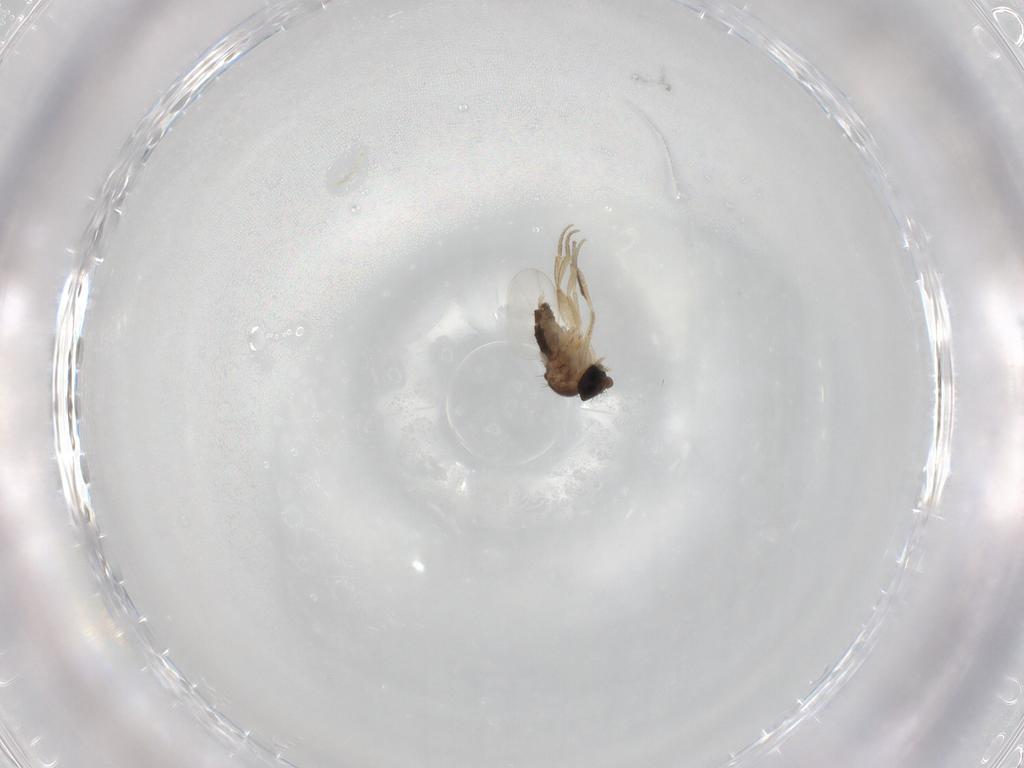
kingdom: Animalia
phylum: Arthropoda
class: Insecta
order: Diptera
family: Phoridae
